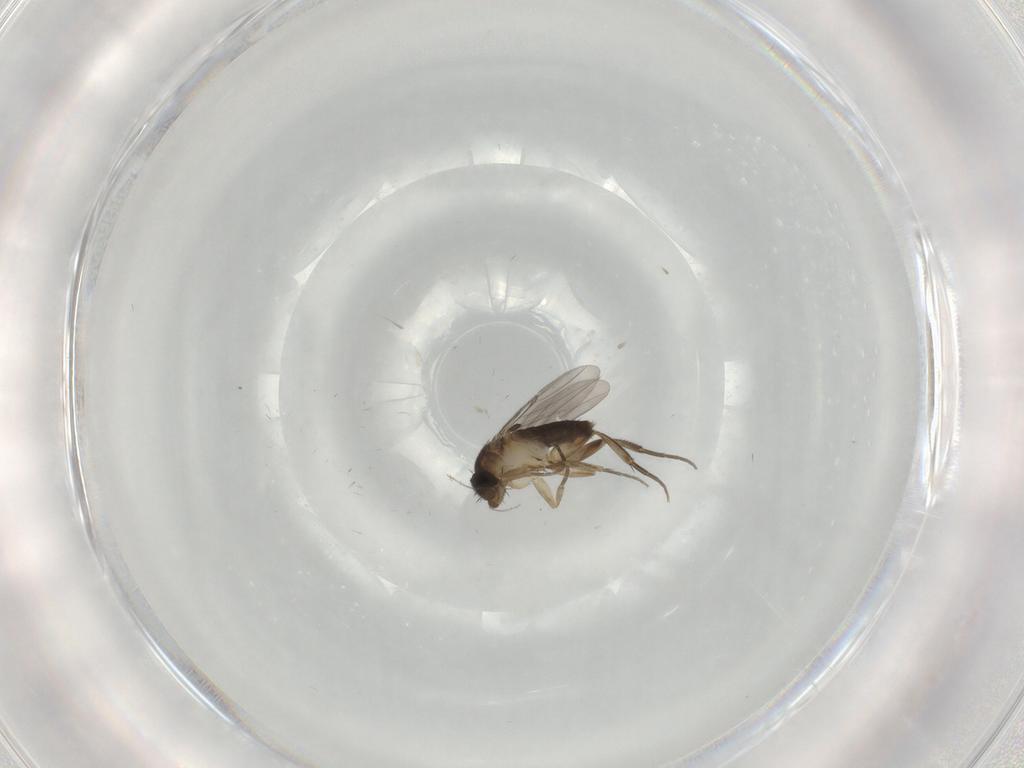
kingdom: Animalia
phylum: Arthropoda
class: Insecta
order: Diptera
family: Phoridae
